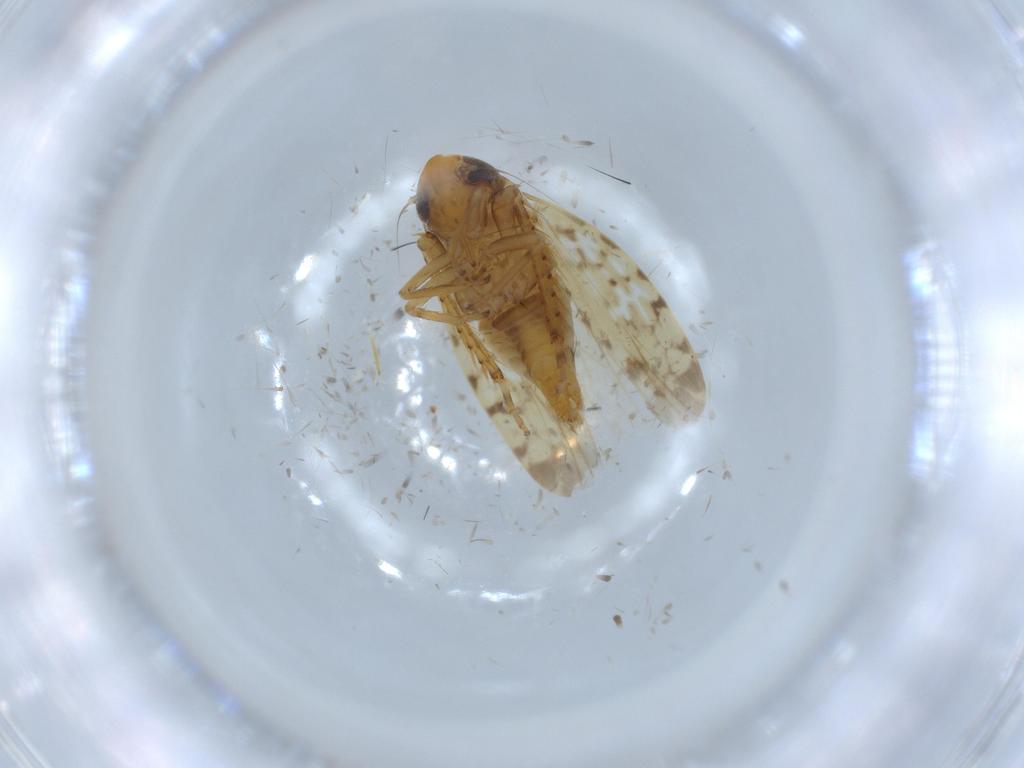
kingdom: Animalia
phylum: Arthropoda
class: Insecta
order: Hemiptera
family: Cicadellidae
